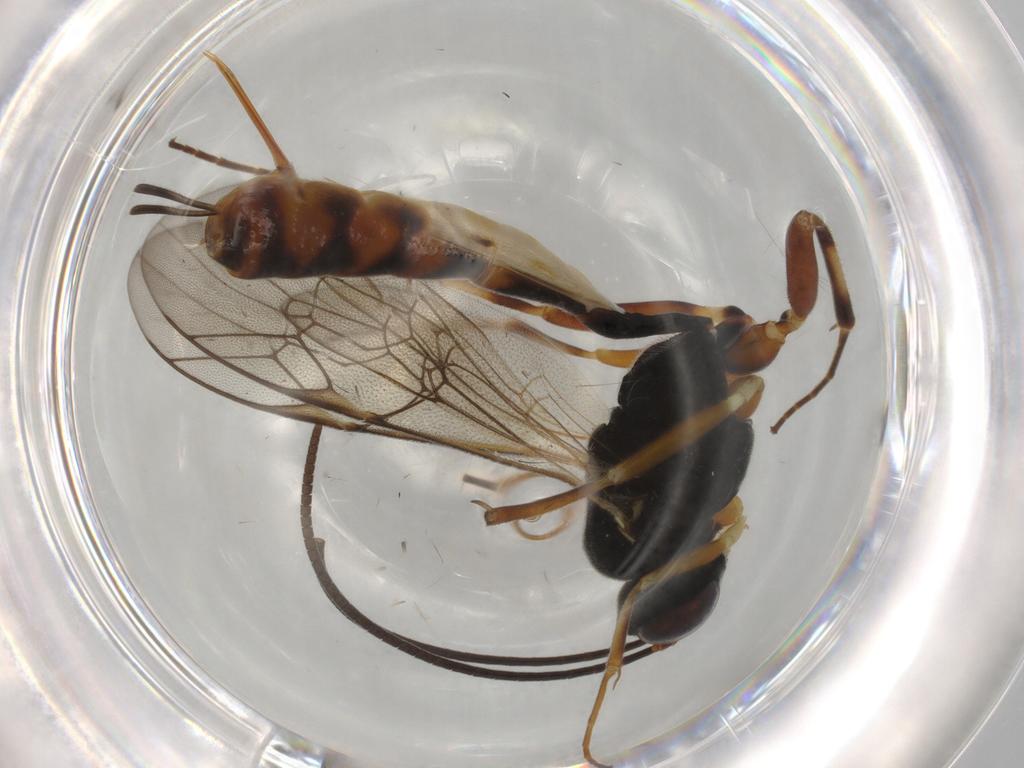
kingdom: Animalia
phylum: Arthropoda
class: Insecta
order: Hymenoptera
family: Ichneumonidae
